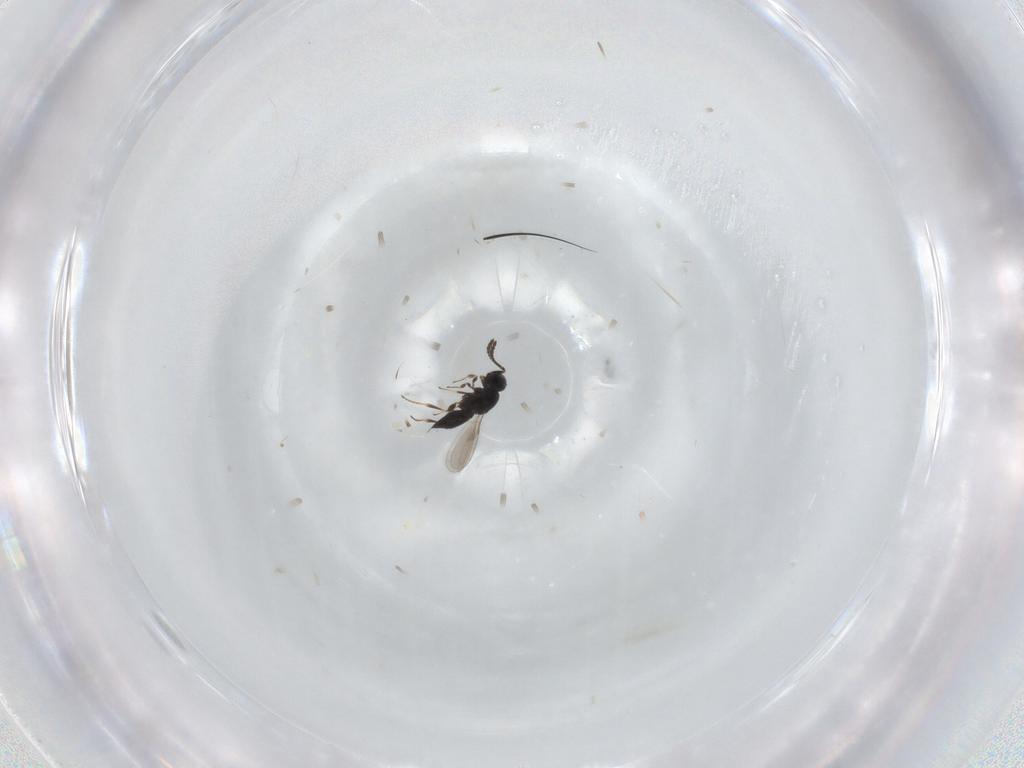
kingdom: Animalia
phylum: Arthropoda
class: Insecta
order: Hymenoptera
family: Scelionidae
